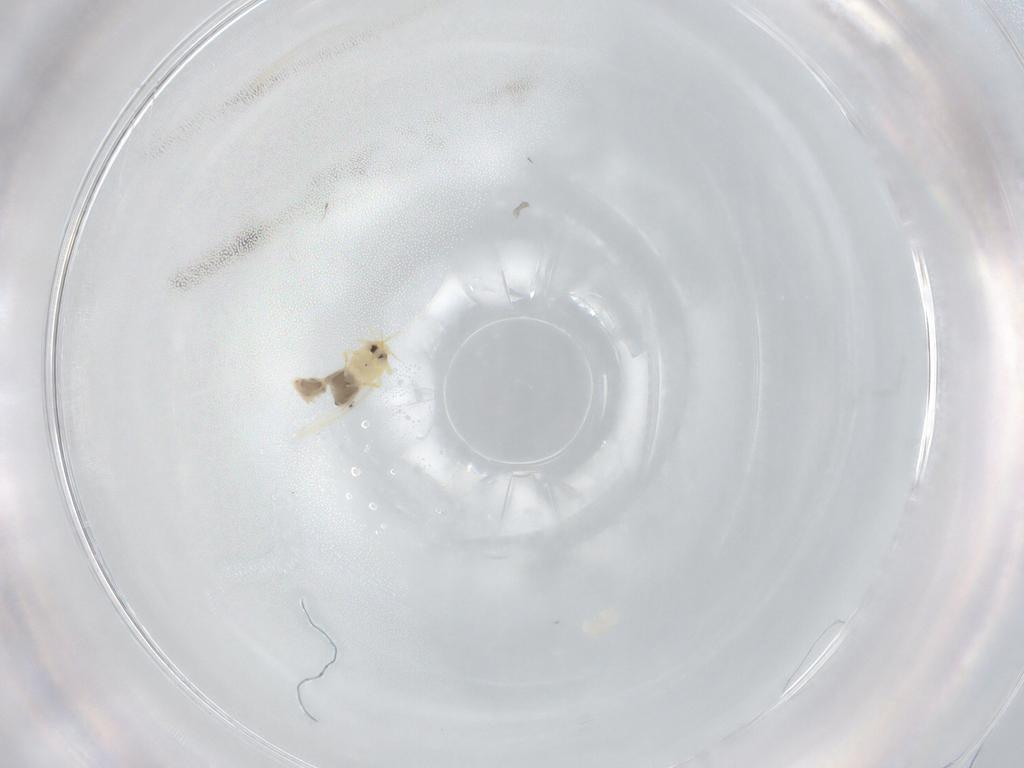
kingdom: Animalia
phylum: Arthropoda
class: Insecta
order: Hemiptera
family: Aleyrodidae
